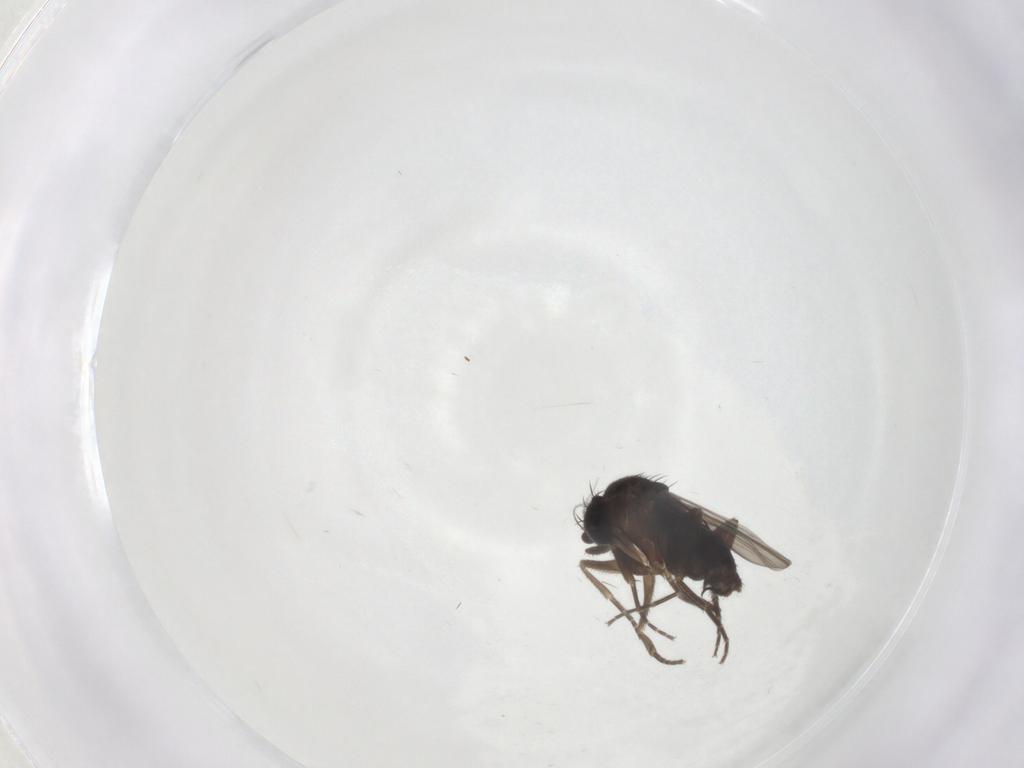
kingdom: Animalia
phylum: Arthropoda
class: Insecta
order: Diptera
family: Phoridae
